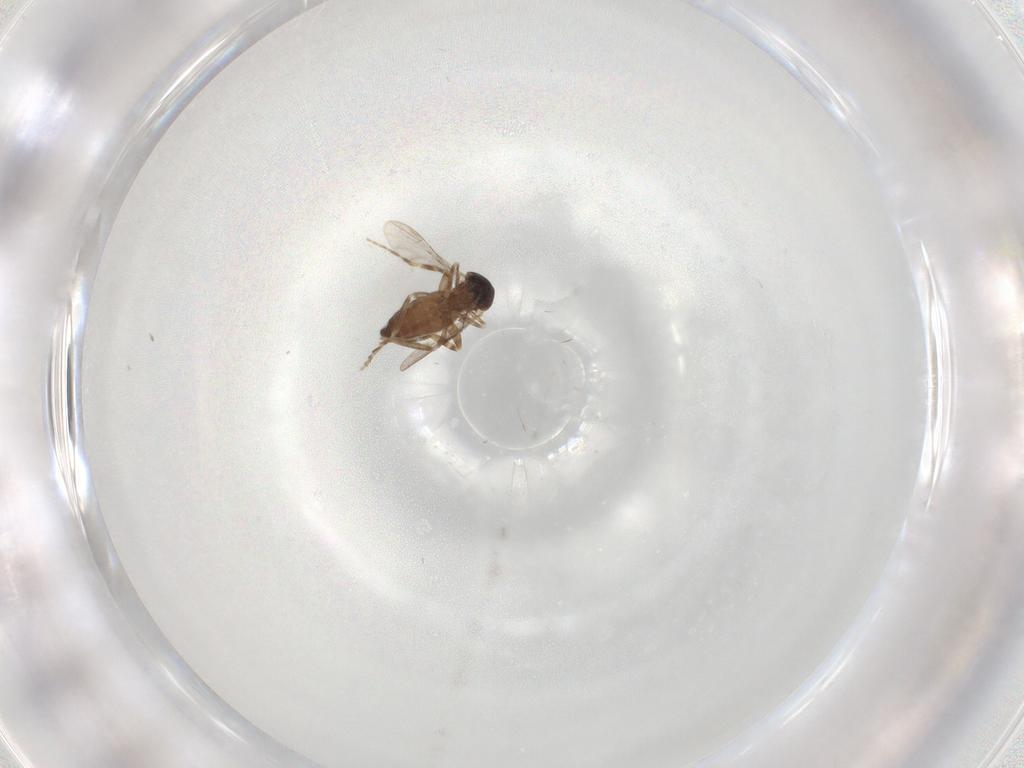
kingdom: Animalia
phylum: Arthropoda
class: Insecta
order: Diptera
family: Ceratopogonidae
